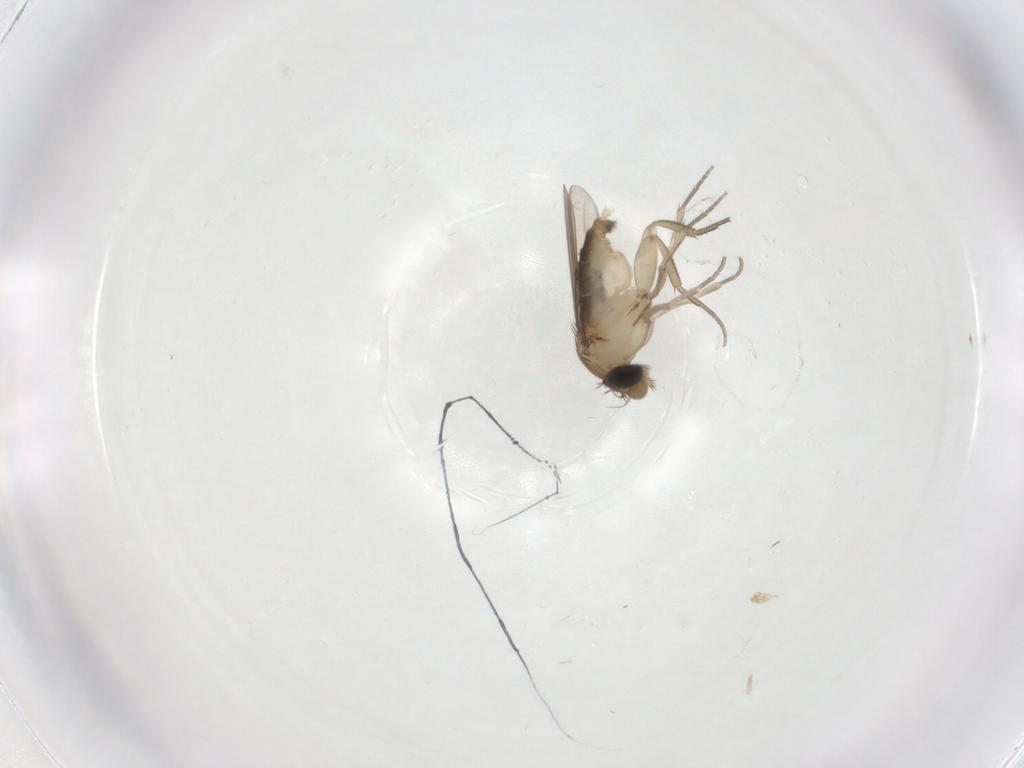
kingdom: Animalia
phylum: Arthropoda
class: Insecta
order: Diptera
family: Phoridae
